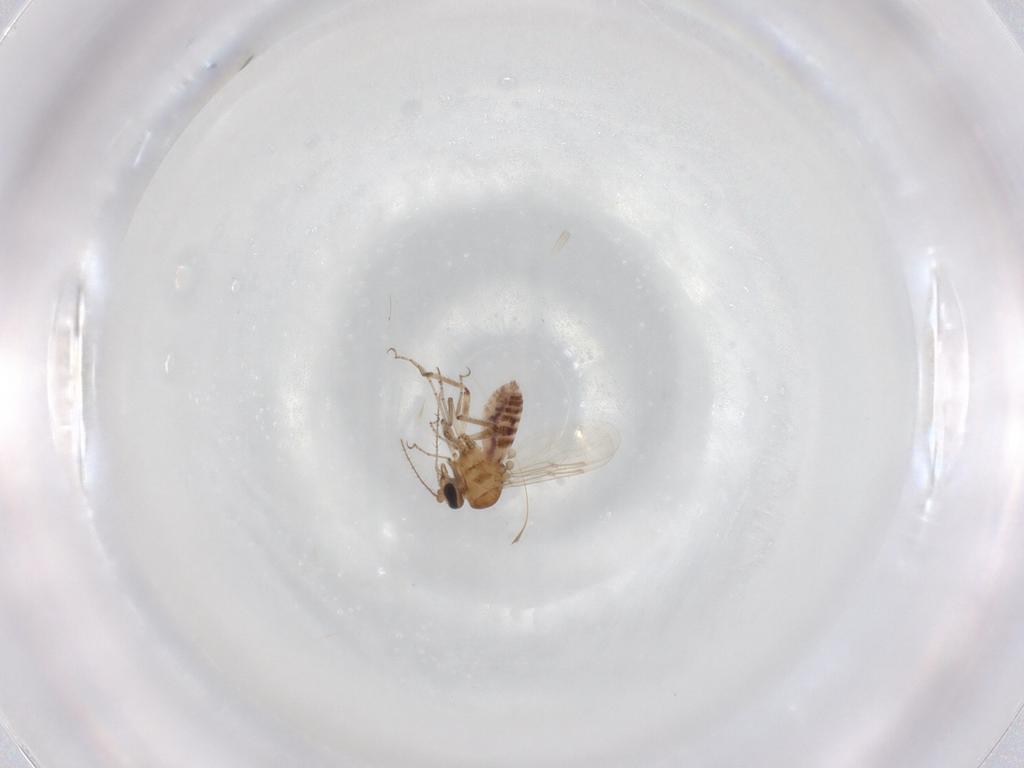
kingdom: Animalia
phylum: Arthropoda
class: Insecta
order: Diptera
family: Ceratopogonidae
